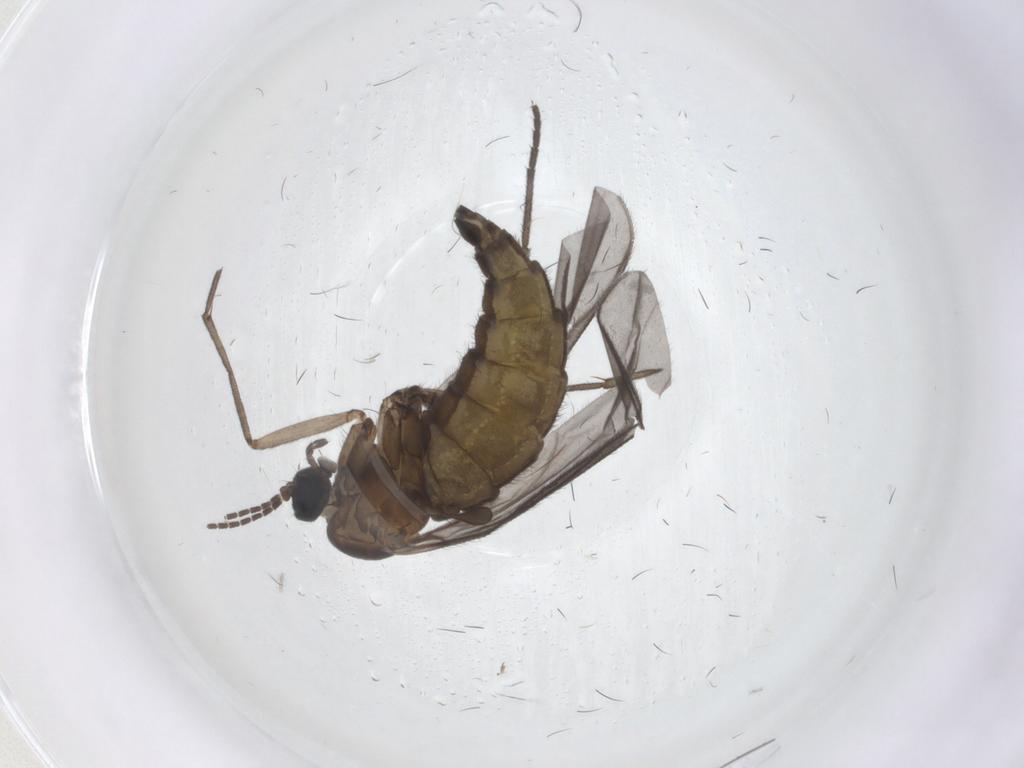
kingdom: Animalia
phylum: Arthropoda
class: Insecta
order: Diptera
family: Sciaridae
